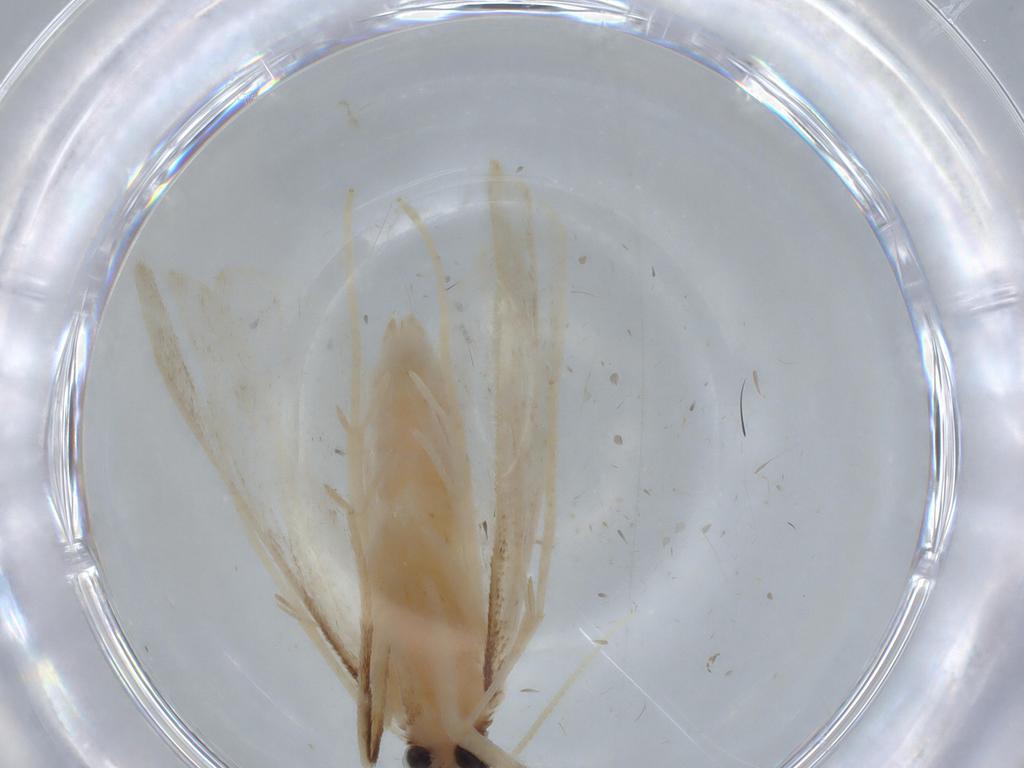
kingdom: Animalia
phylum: Arthropoda
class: Insecta
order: Lepidoptera
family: Crambidae
